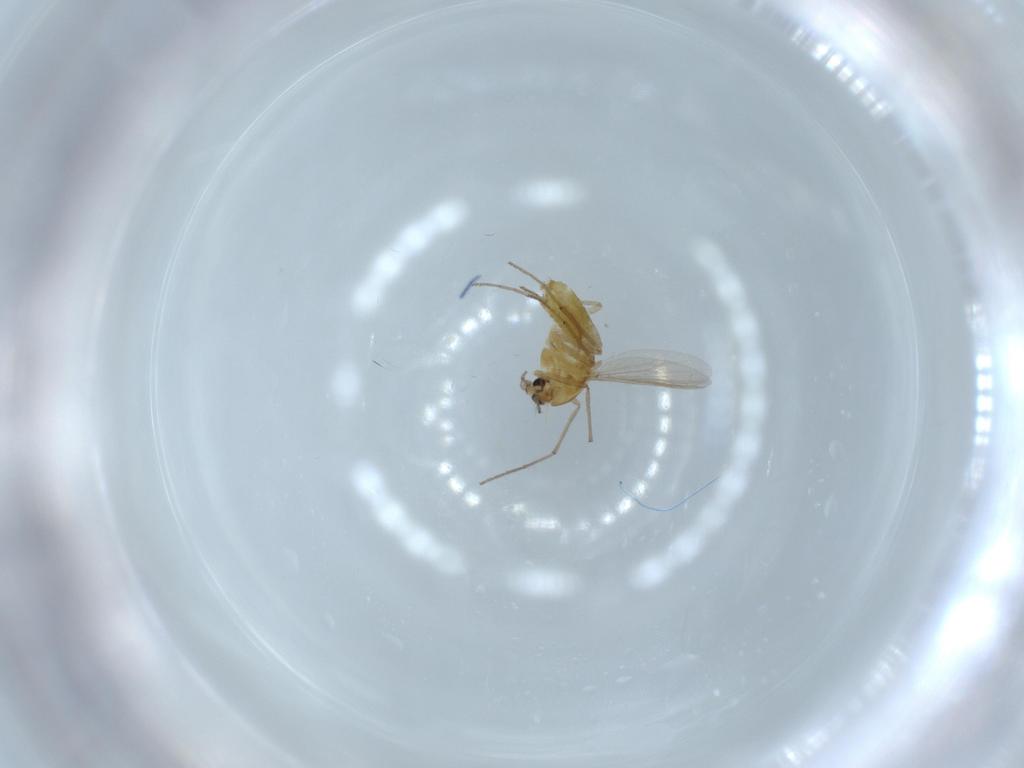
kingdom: Animalia
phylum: Arthropoda
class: Insecta
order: Diptera
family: Chironomidae
